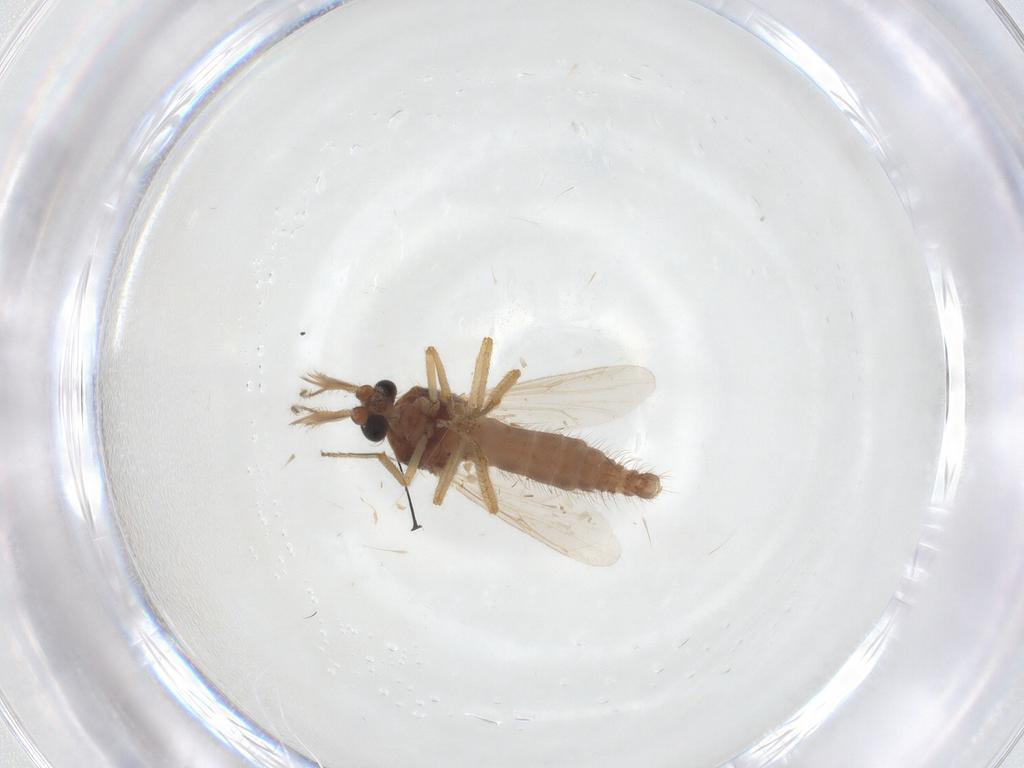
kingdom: Animalia
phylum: Arthropoda
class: Insecta
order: Diptera
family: Ceratopogonidae
